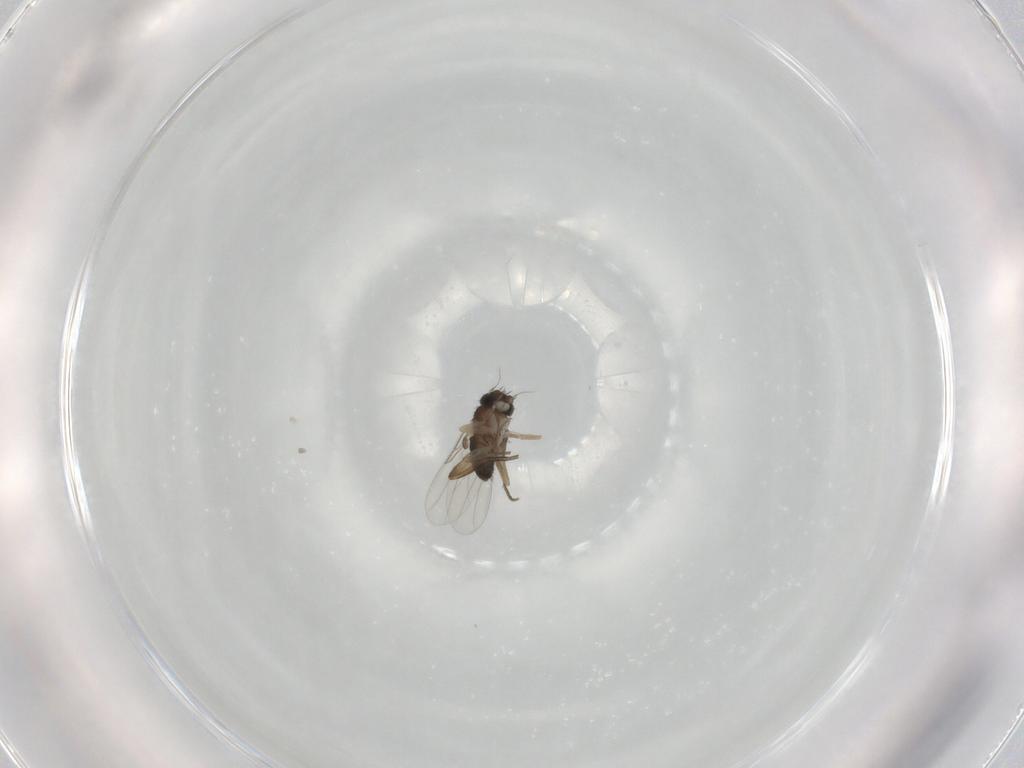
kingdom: Animalia
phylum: Arthropoda
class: Insecta
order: Diptera
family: Phoridae
